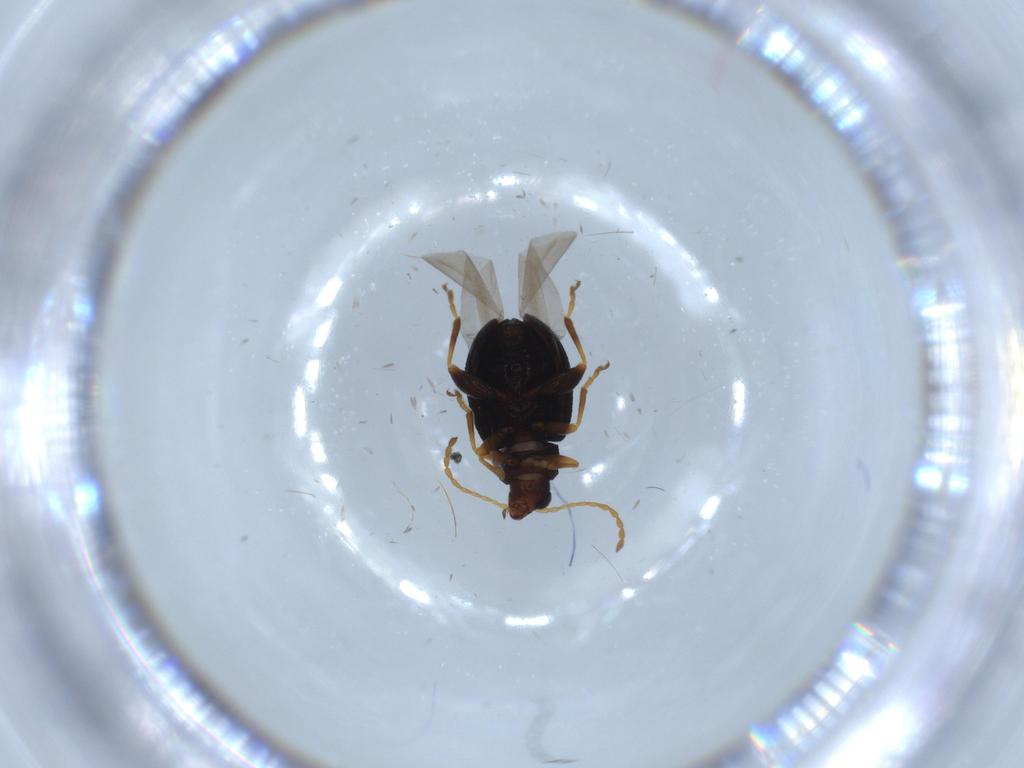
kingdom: Animalia
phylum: Arthropoda
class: Insecta
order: Coleoptera
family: Chrysomelidae
